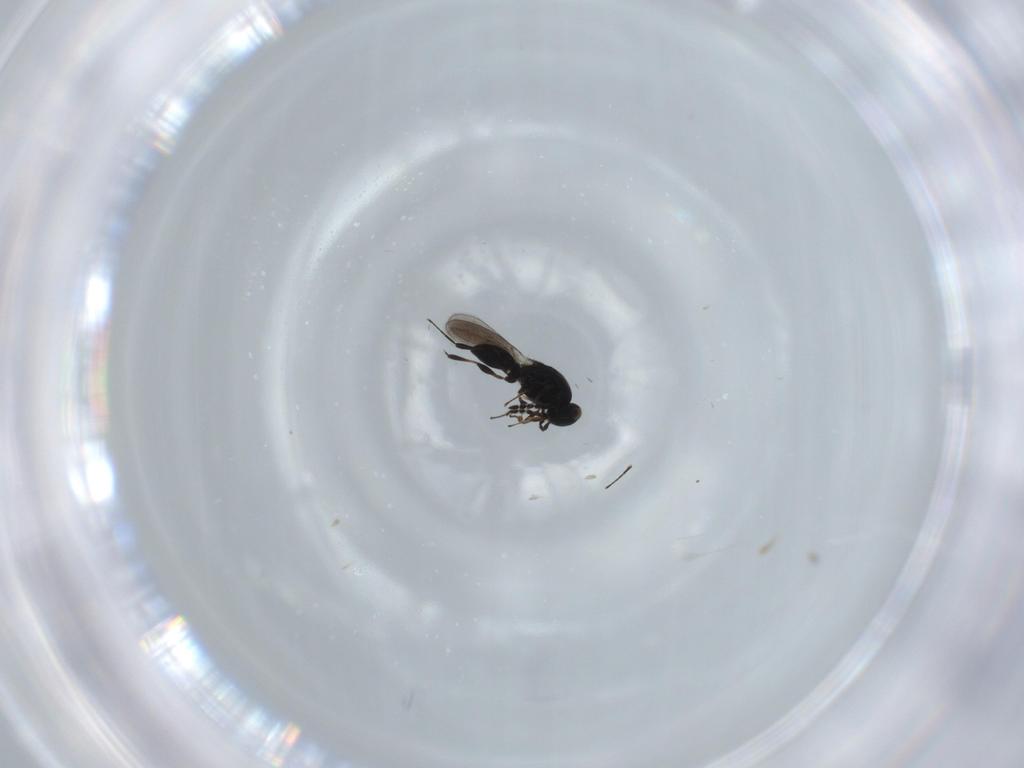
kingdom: Animalia
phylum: Arthropoda
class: Insecta
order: Hymenoptera
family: Platygastridae
